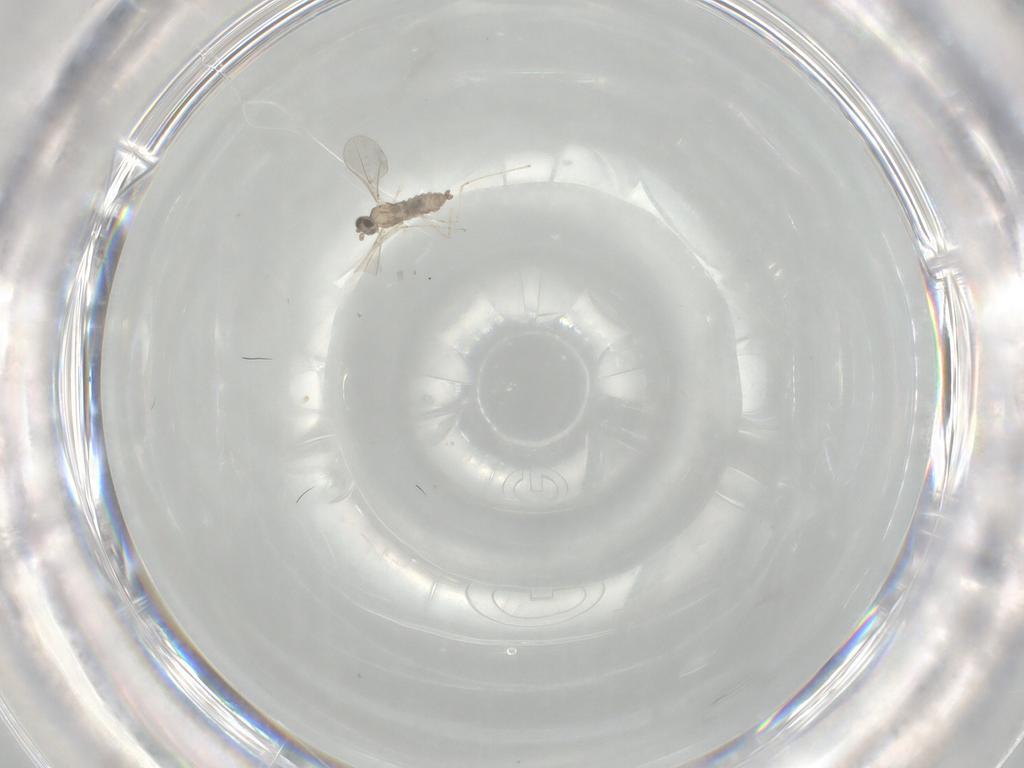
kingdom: Animalia
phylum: Arthropoda
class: Insecta
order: Diptera
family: Cecidomyiidae
